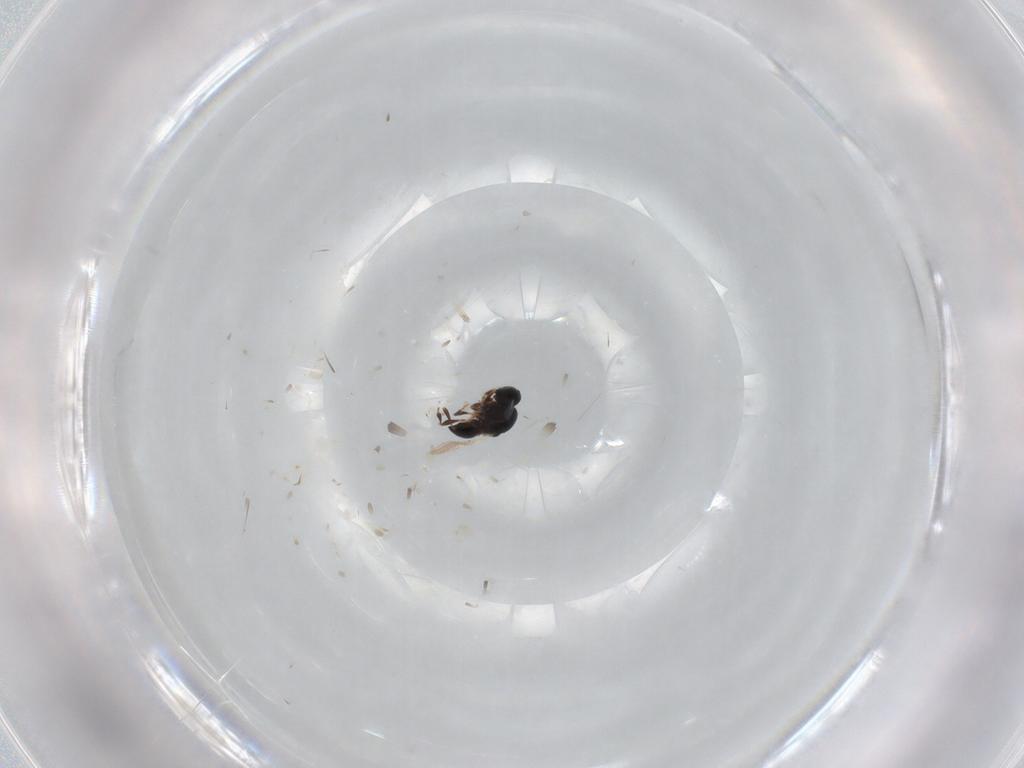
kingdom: Animalia
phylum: Arthropoda
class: Insecta
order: Hymenoptera
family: Platygastridae
